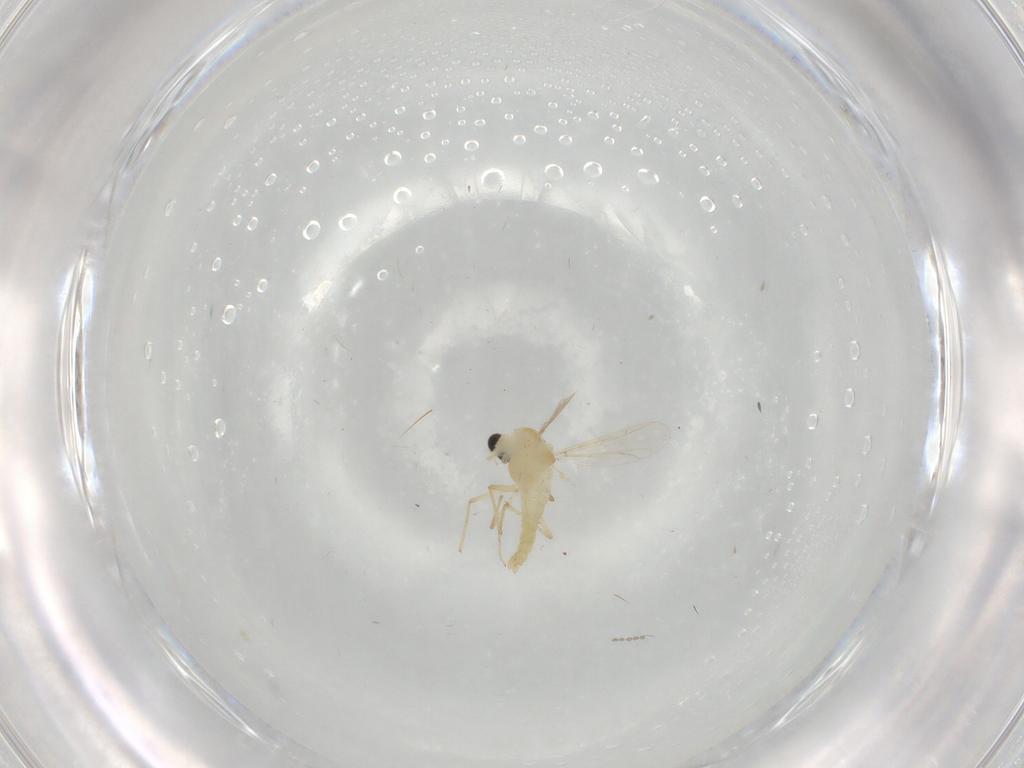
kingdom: Animalia
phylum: Arthropoda
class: Insecta
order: Diptera
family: Chironomidae
